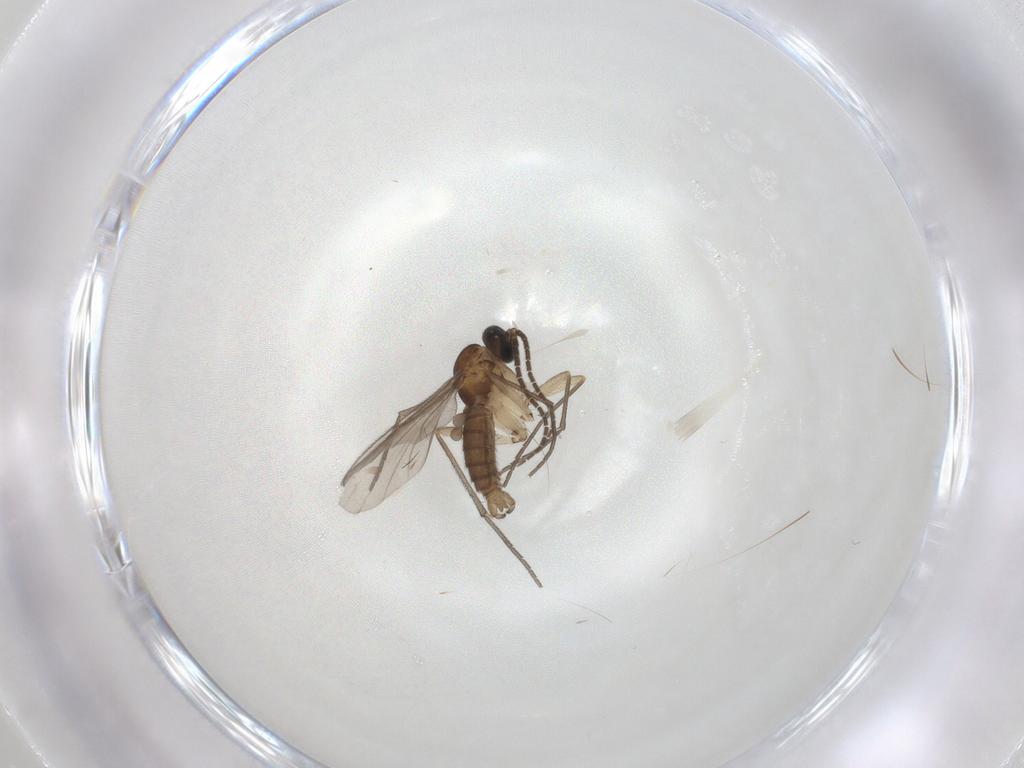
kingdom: Animalia
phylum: Arthropoda
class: Insecta
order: Diptera
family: Sciaridae
